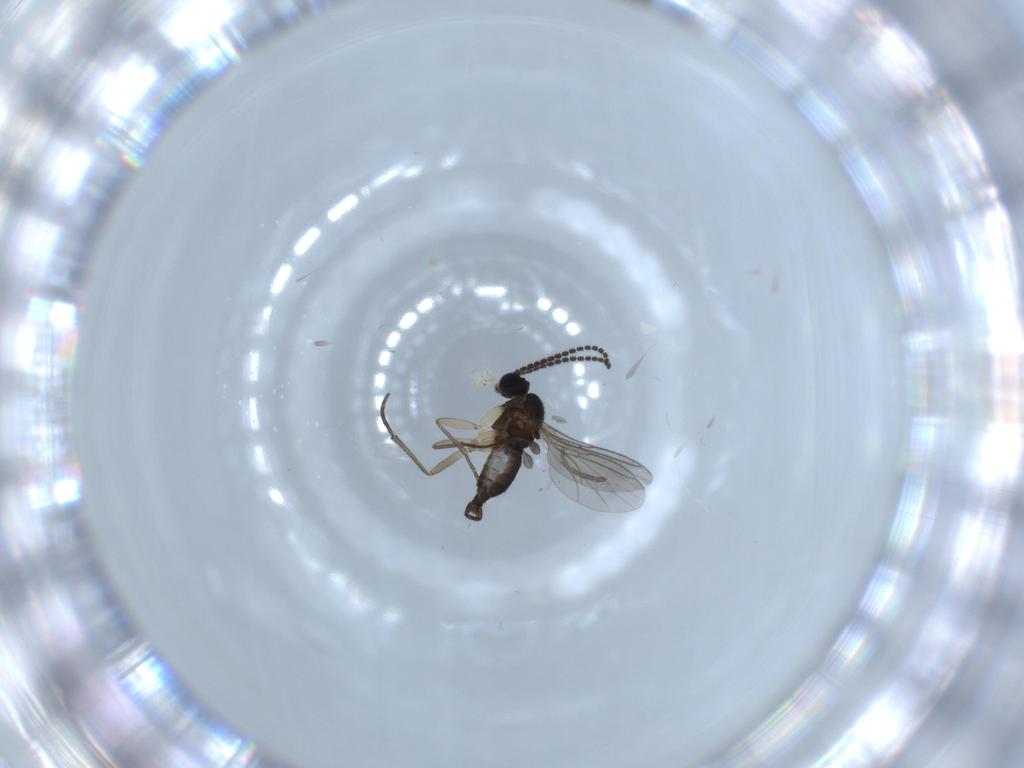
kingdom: Animalia
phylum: Arthropoda
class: Insecta
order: Diptera
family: Sciaridae
